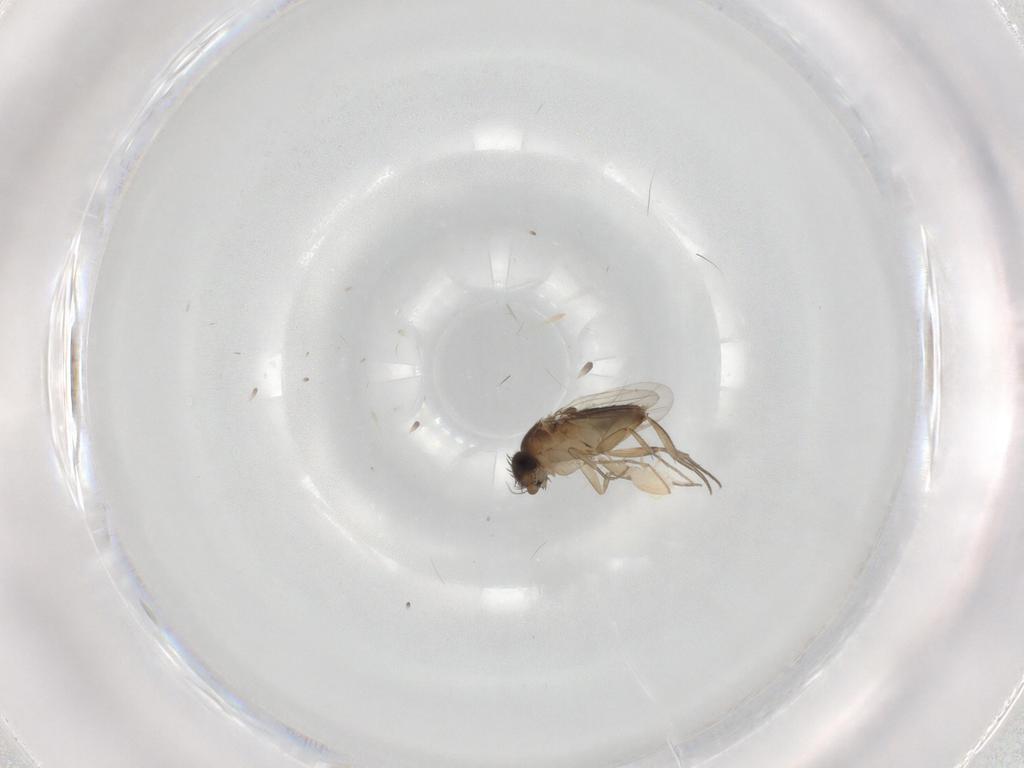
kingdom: Animalia
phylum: Arthropoda
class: Insecta
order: Diptera
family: Phoridae
